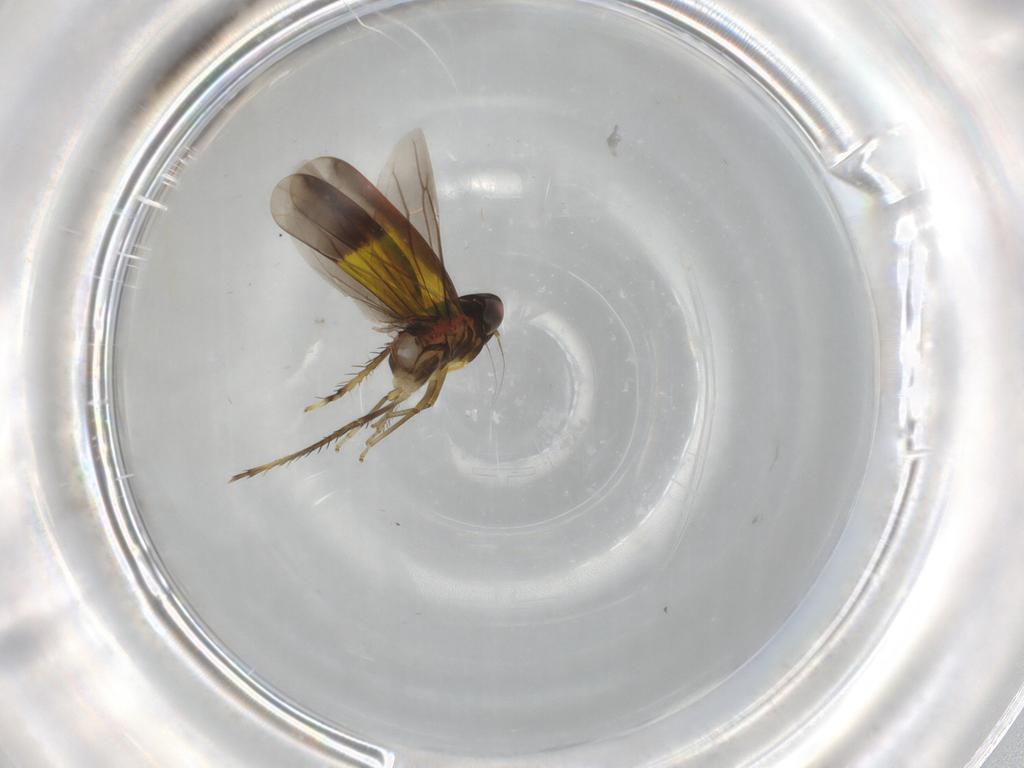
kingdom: Animalia
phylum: Arthropoda
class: Insecta
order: Hemiptera
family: Cicadellidae
